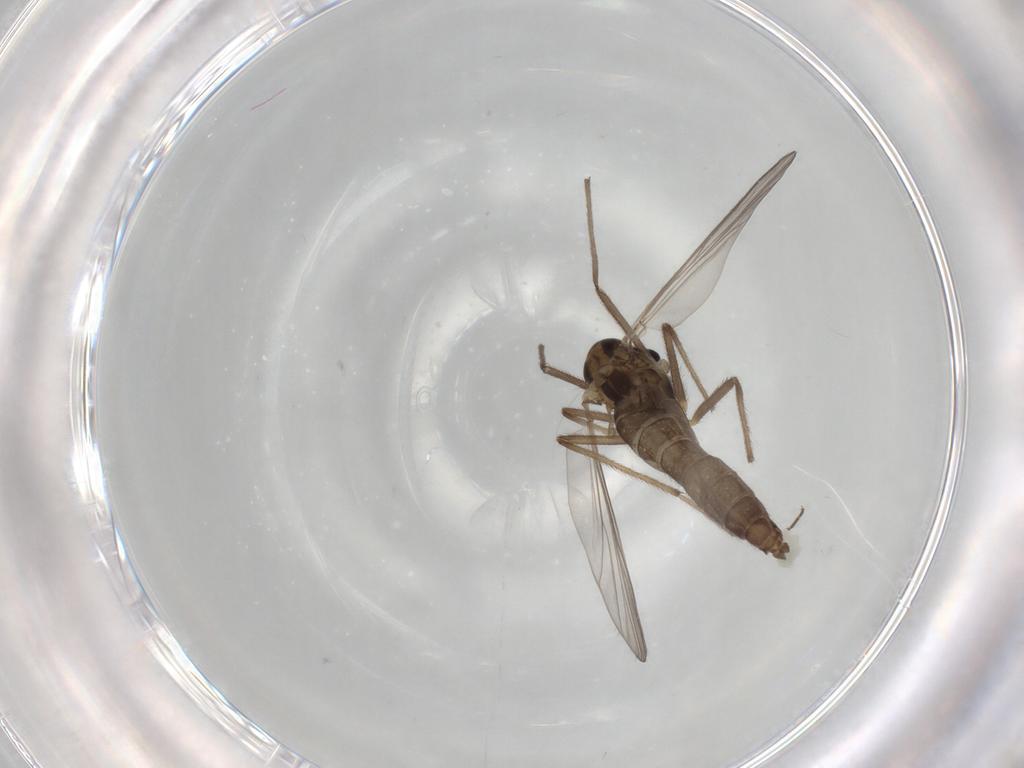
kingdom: Animalia
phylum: Arthropoda
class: Insecta
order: Diptera
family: Chironomidae
